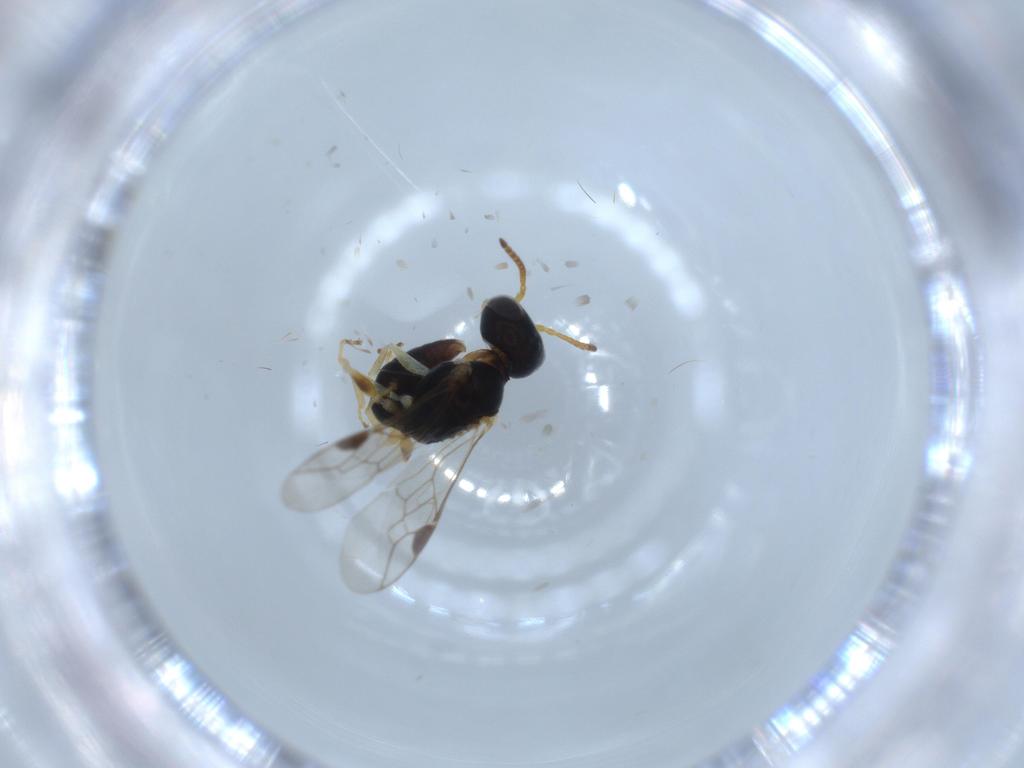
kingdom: Animalia
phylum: Arthropoda
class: Insecta
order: Hymenoptera
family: Pemphredonidae
